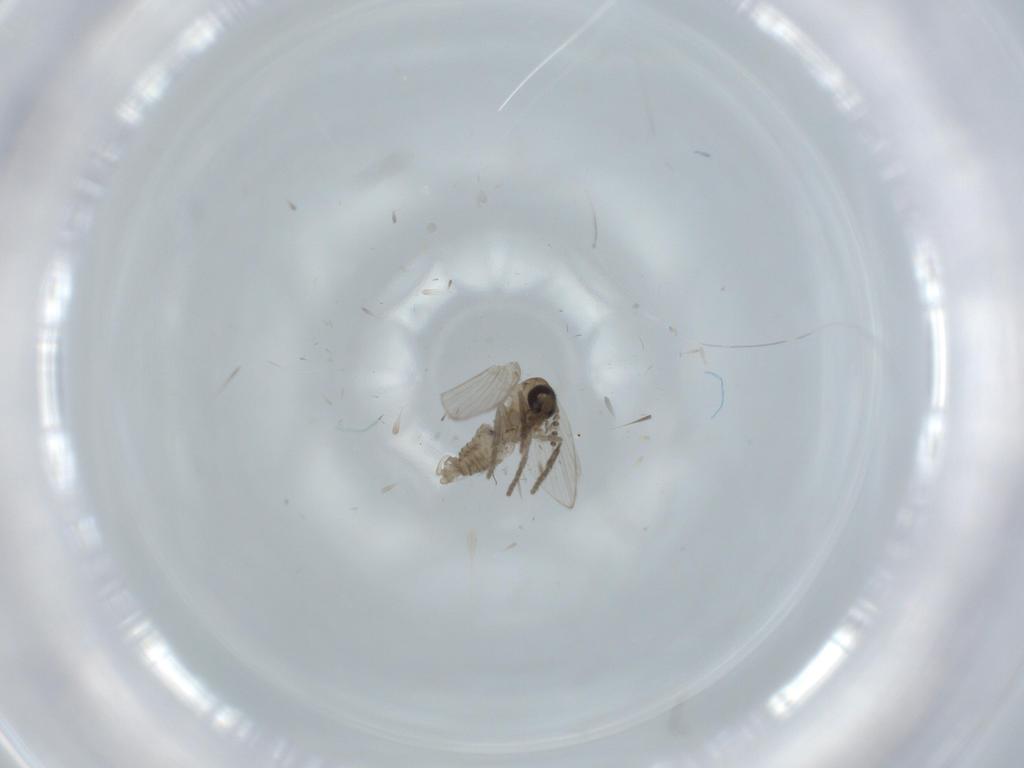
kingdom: Animalia
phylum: Arthropoda
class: Insecta
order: Diptera
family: Psychodidae
